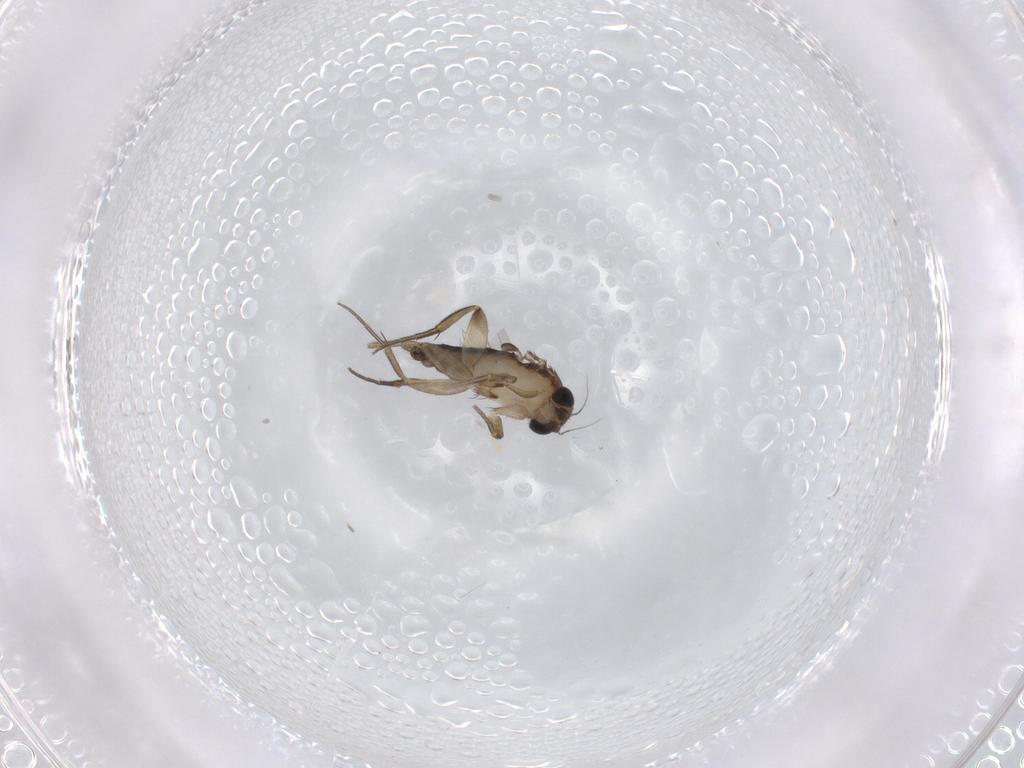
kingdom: Animalia
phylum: Arthropoda
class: Insecta
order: Diptera
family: Phoridae
